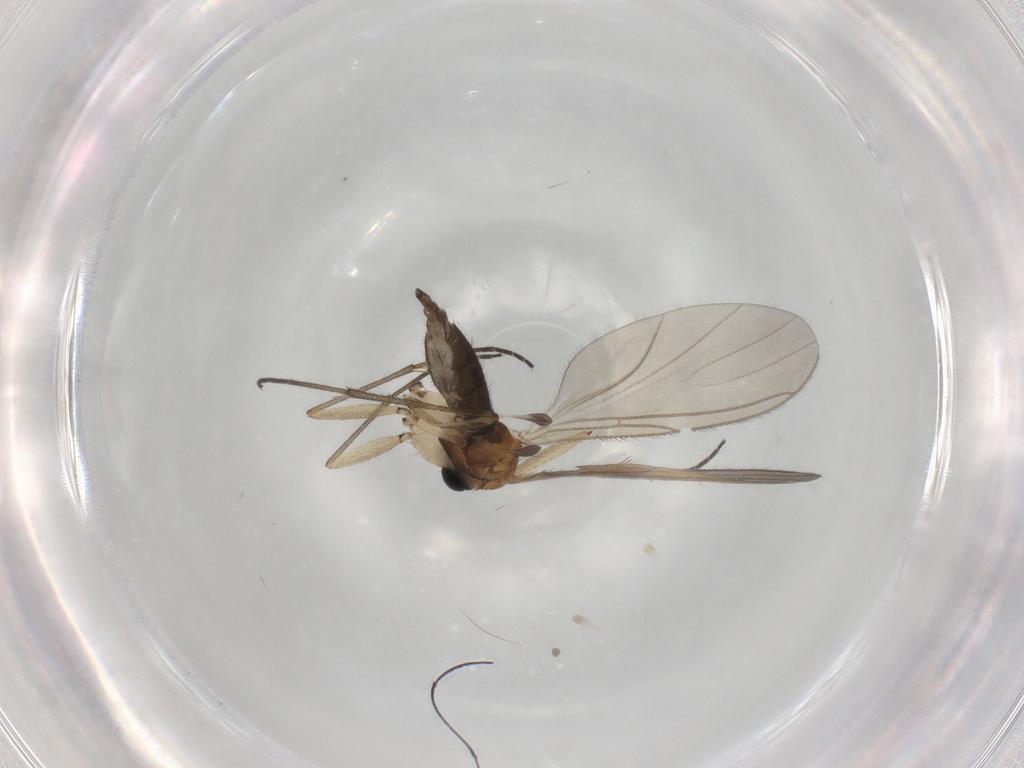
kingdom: Animalia
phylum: Arthropoda
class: Insecta
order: Diptera
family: Sciaridae
